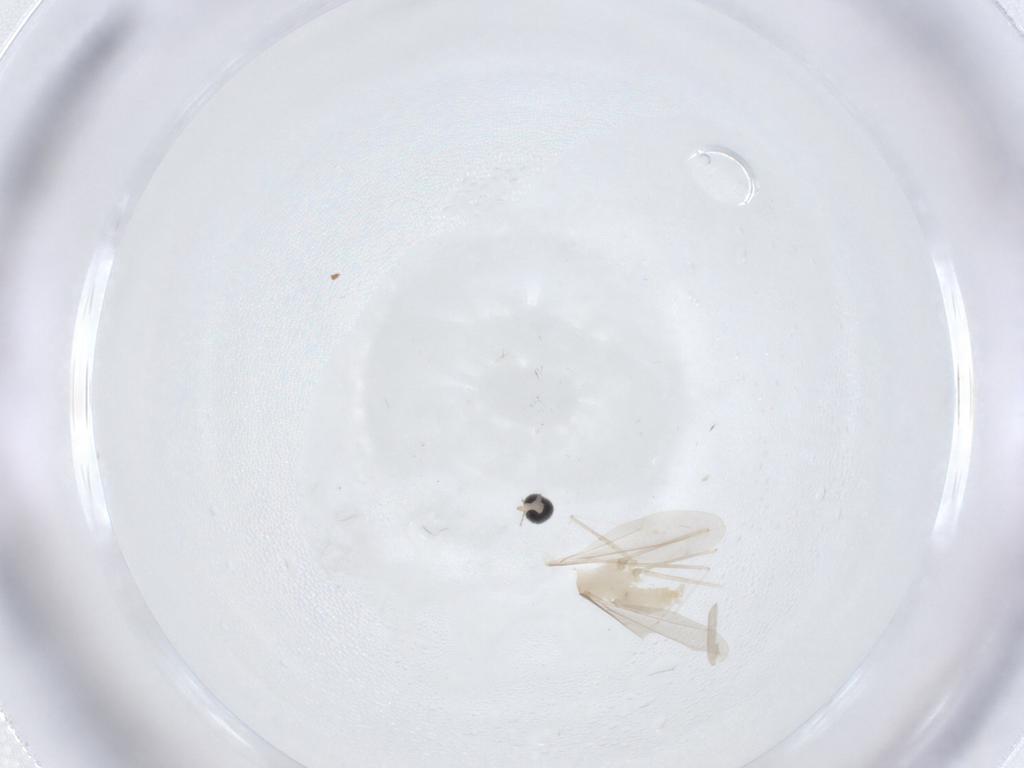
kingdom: Animalia
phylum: Arthropoda
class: Insecta
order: Diptera
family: Cecidomyiidae
